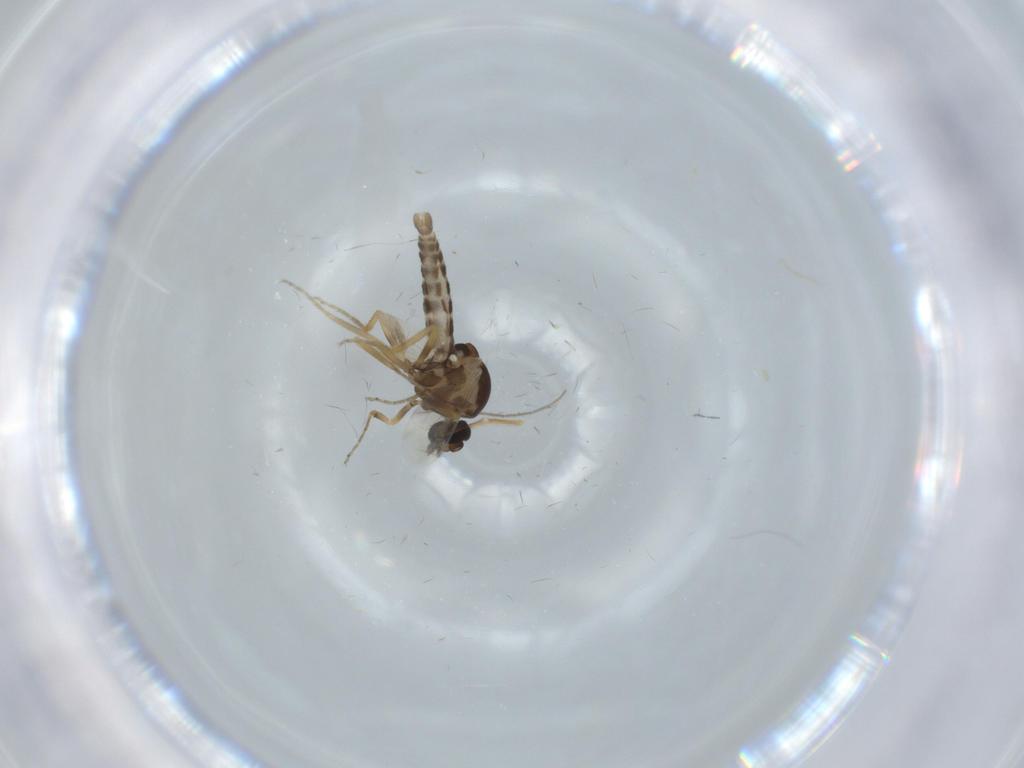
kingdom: Animalia
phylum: Arthropoda
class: Insecta
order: Diptera
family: Ceratopogonidae
